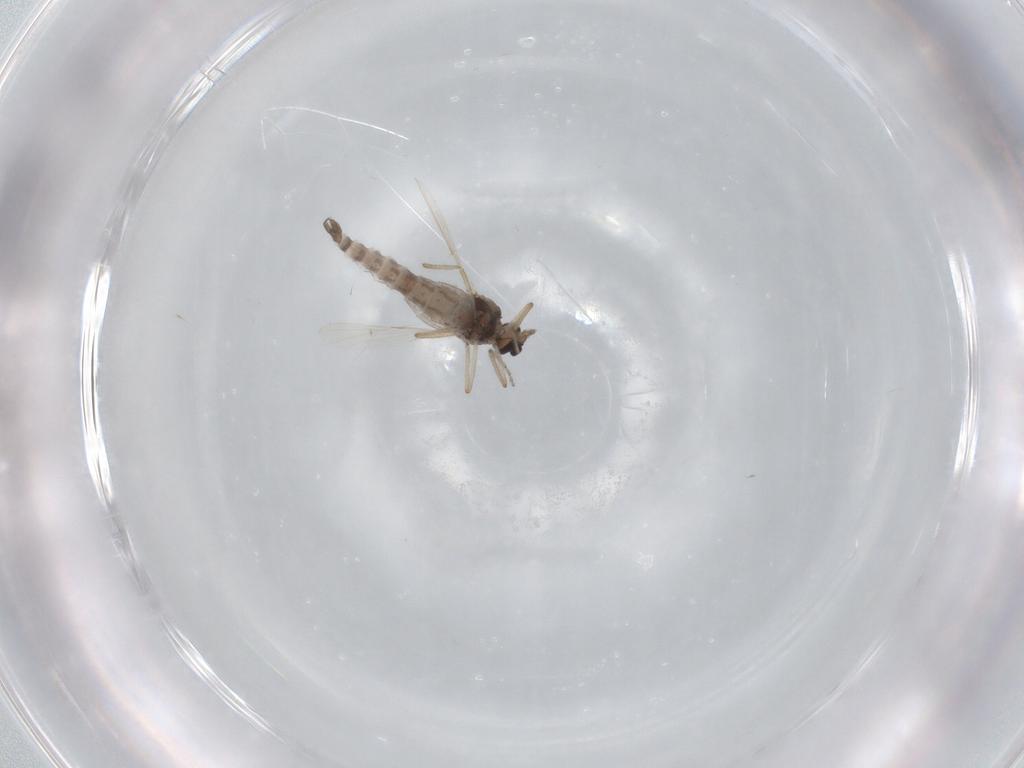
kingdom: Animalia
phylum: Arthropoda
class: Insecta
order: Diptera
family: Ceratopogonidae
